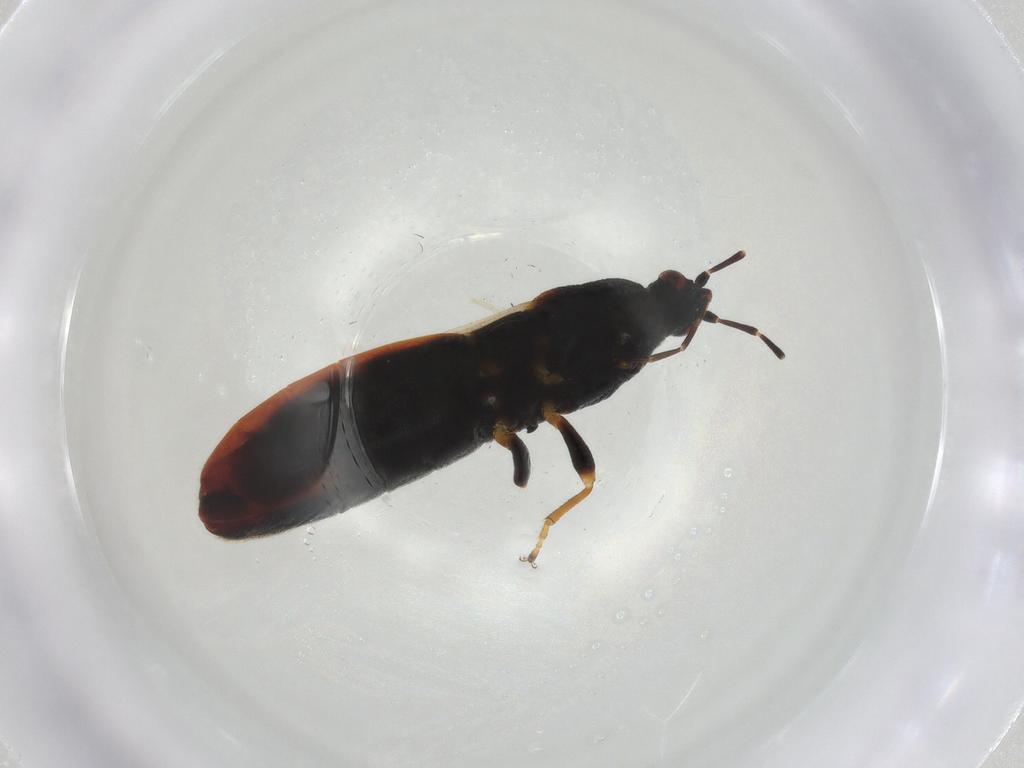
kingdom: Animalia
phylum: Arthropoda
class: Insecta
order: Hemiptera
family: Blissidae
